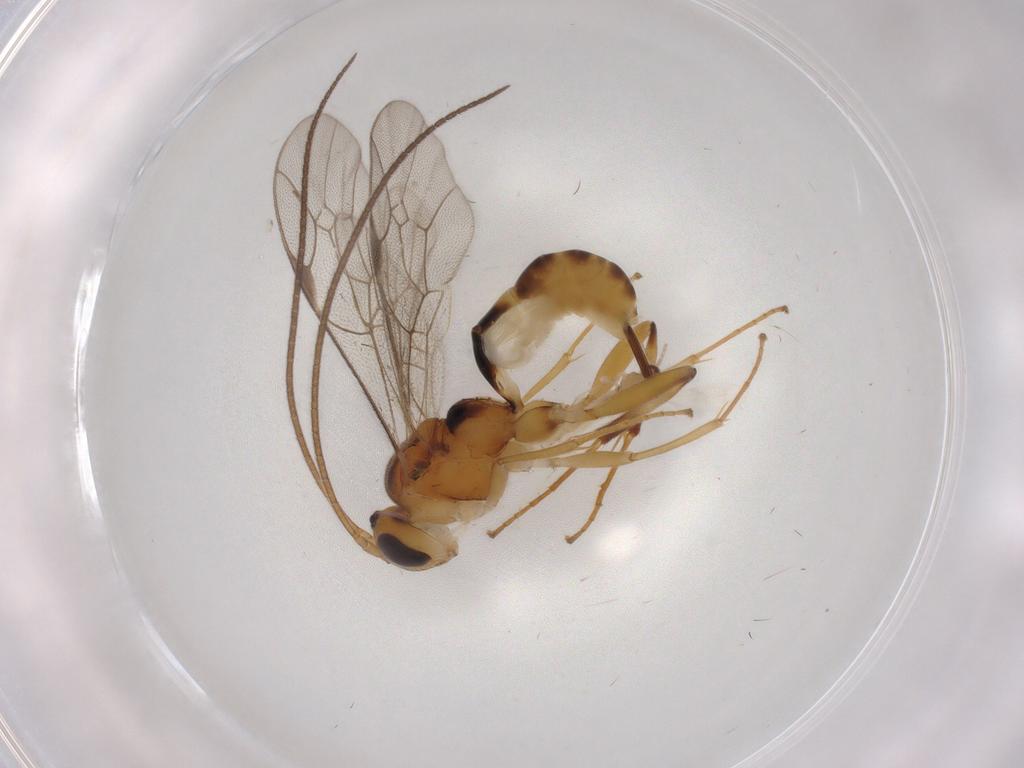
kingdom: Animalia
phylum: Arthropoda
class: Insecta
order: Hymenoptera
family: Ichneumonidae
